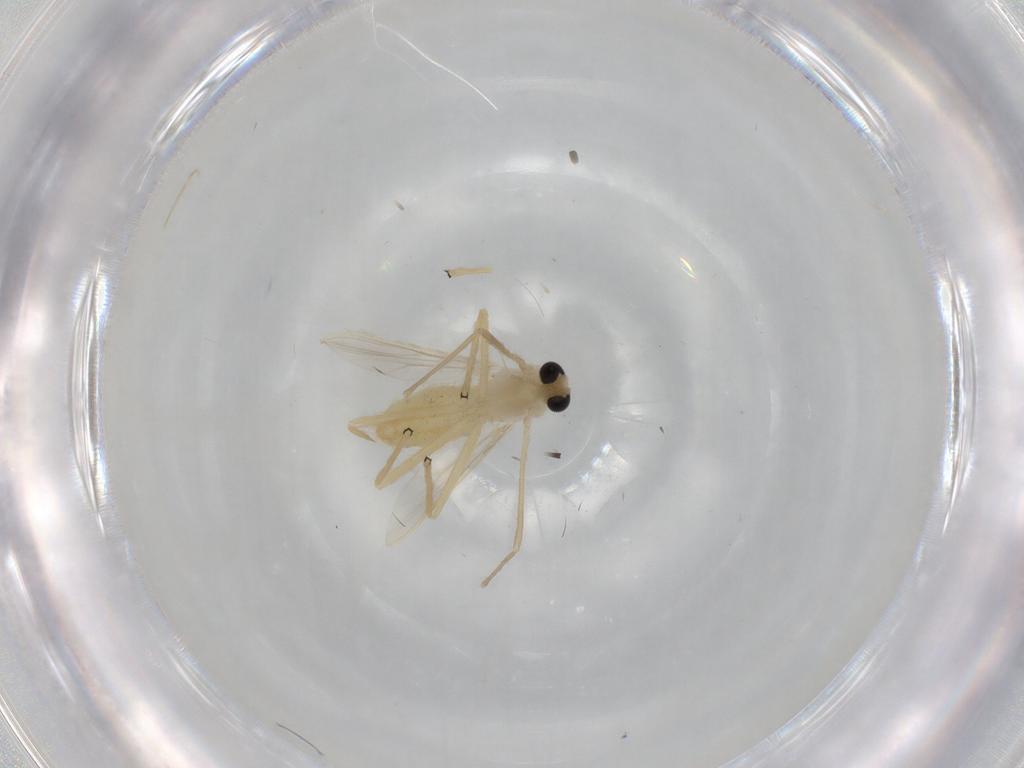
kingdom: Animalia
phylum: Arthropoda
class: Insecta
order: Diptera
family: Chironomidae
